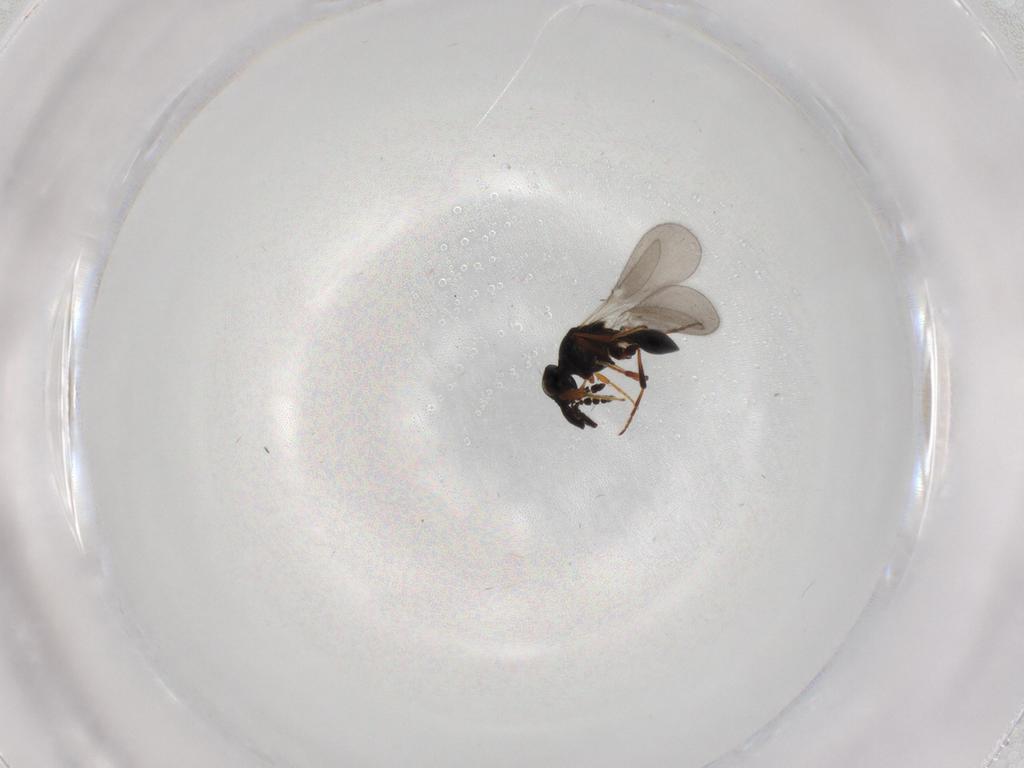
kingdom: Animalia
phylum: Arthropoda
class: Insecta
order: Hymenoptera
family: Platygastridae
